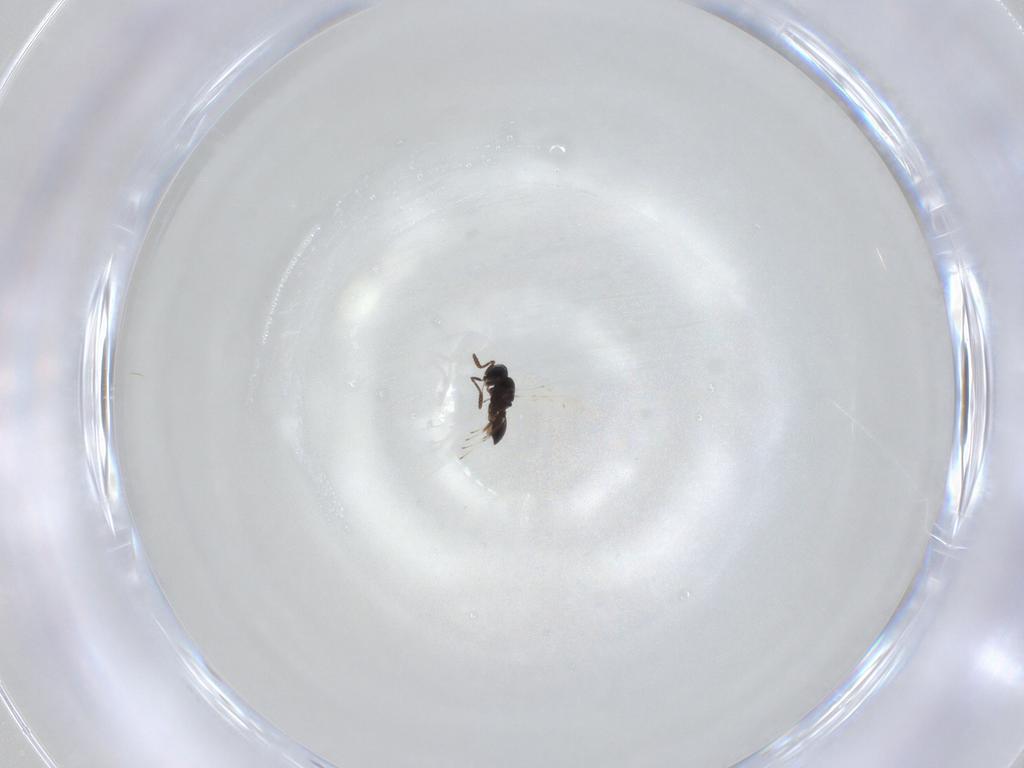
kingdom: Animalia
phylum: Arthropoda
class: Insecta
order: Hymenoptera
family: Scelionidae
